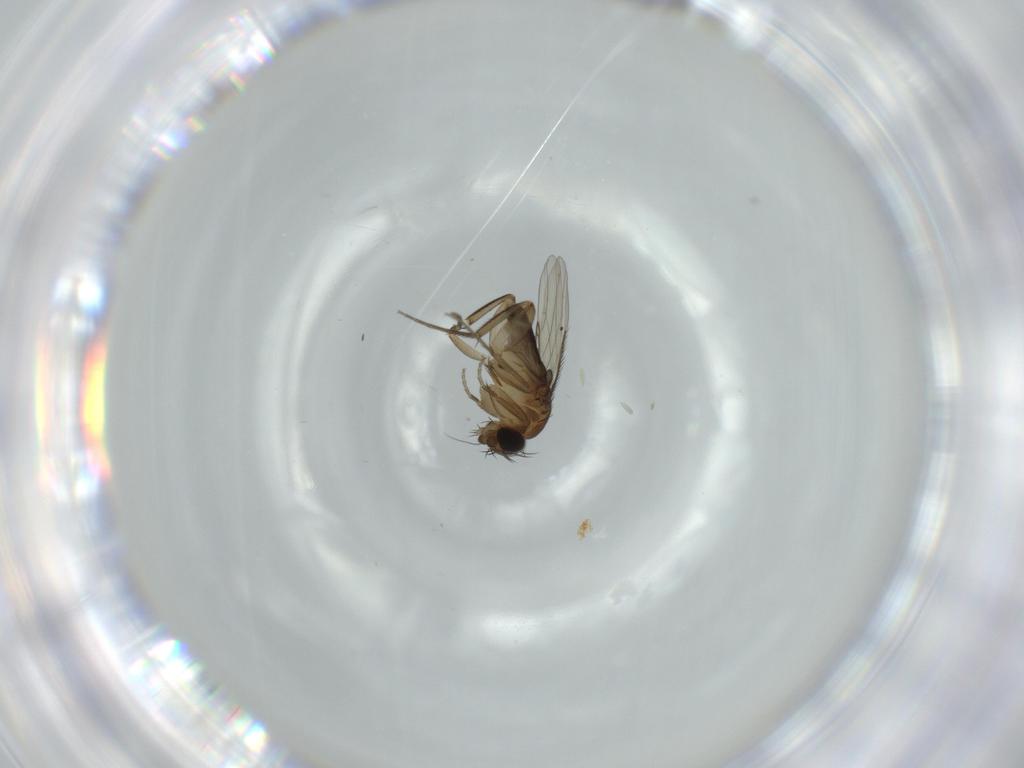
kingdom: Animalia
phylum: Arthropoda
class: Insecta
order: Diptera
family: Phoridae
